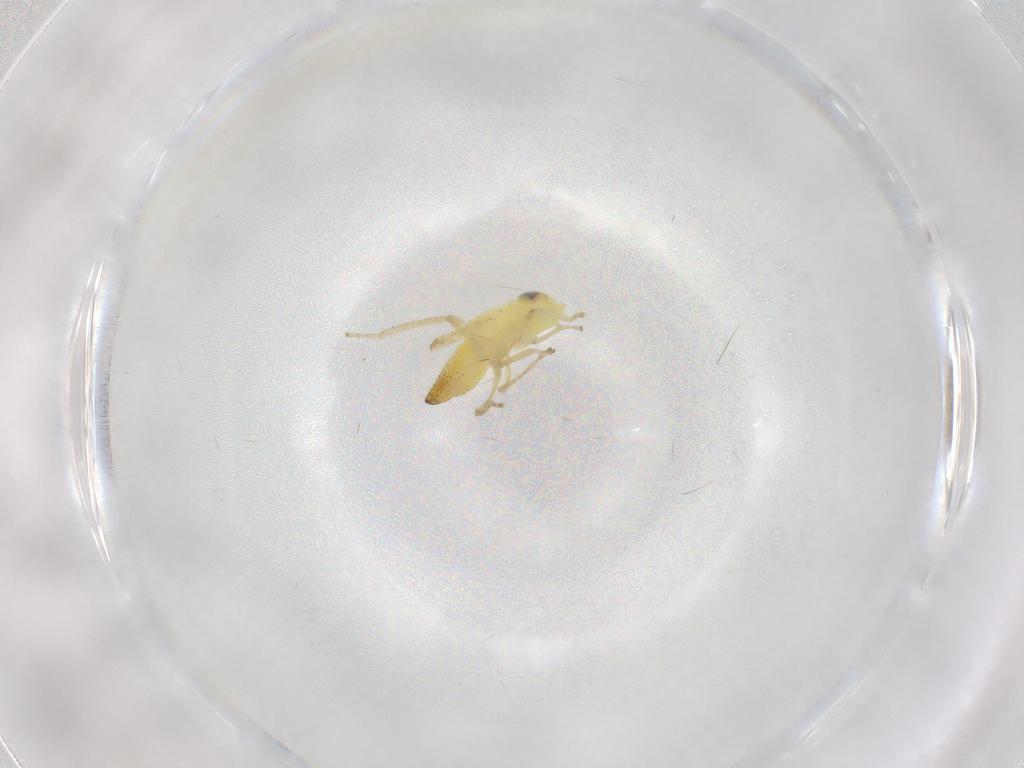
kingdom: Animalia
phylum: Arthropoda
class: Insecta
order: Hemiptera
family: Cicadellidae
